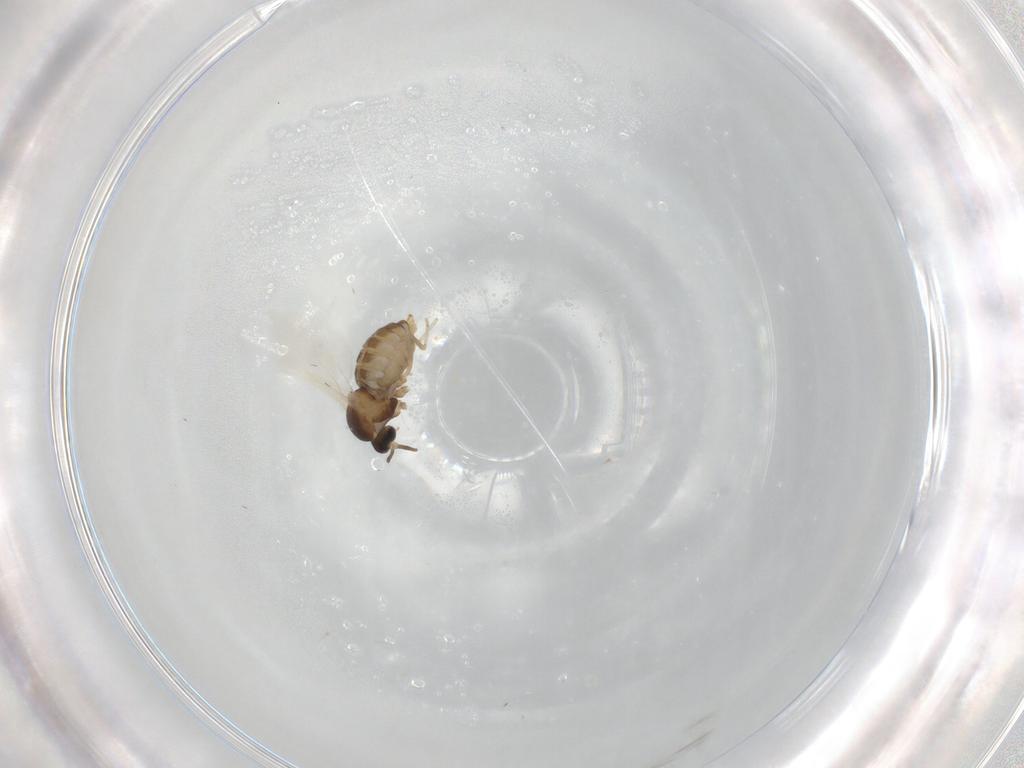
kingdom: Animalia
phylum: Arthropoda
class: Insecta
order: Diptera
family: Cecidomyiidae
